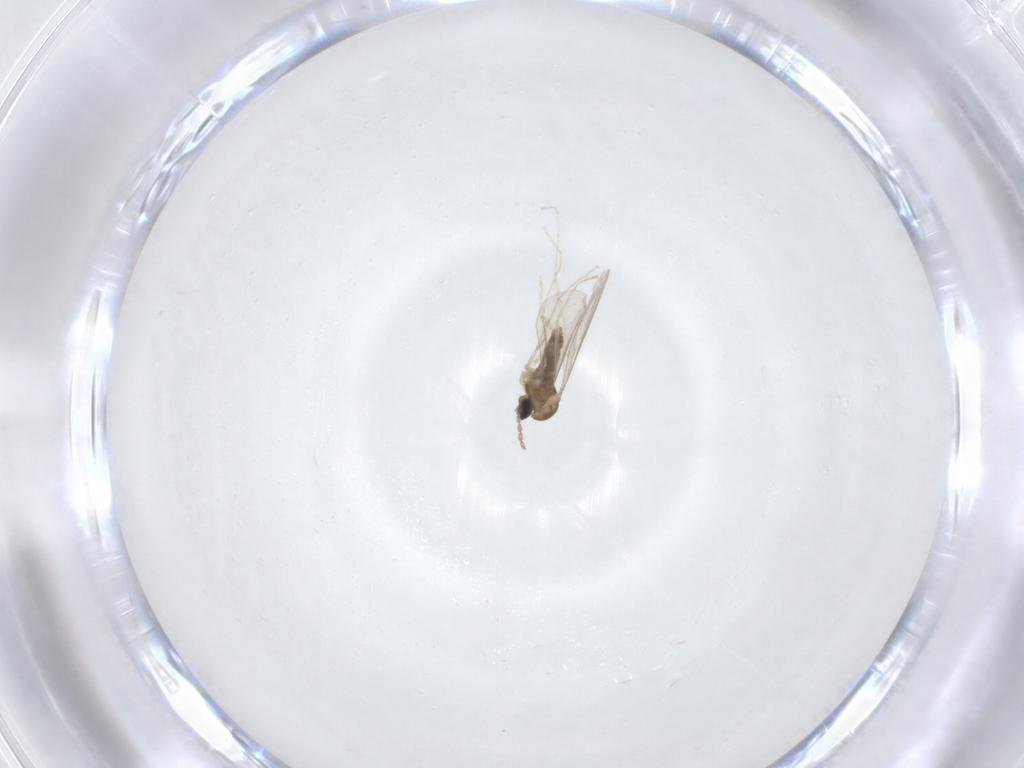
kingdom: Animalia
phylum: Arthropoda
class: Insecta
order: Diptera
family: Cecidomyiidae
